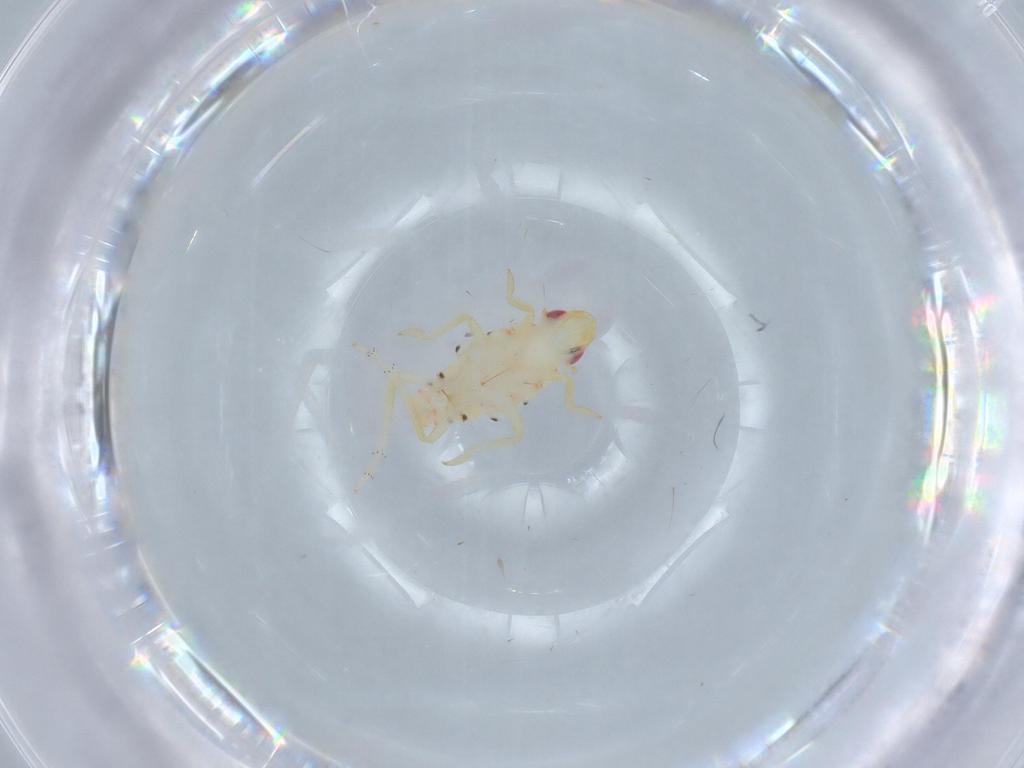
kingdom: Animalia
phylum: Arthropoda
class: Insecta
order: Hemiptera
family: Tropiduchidae
